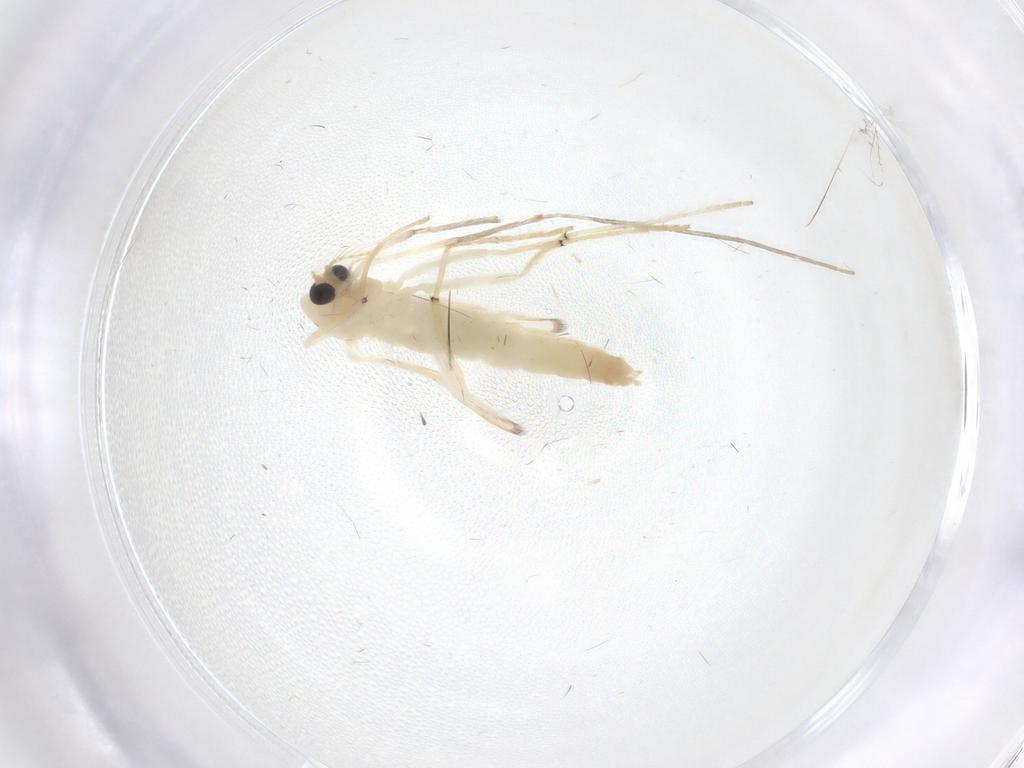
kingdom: Animalia
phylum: Arthropoda
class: Insecta
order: Diptera
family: Chironomidae
